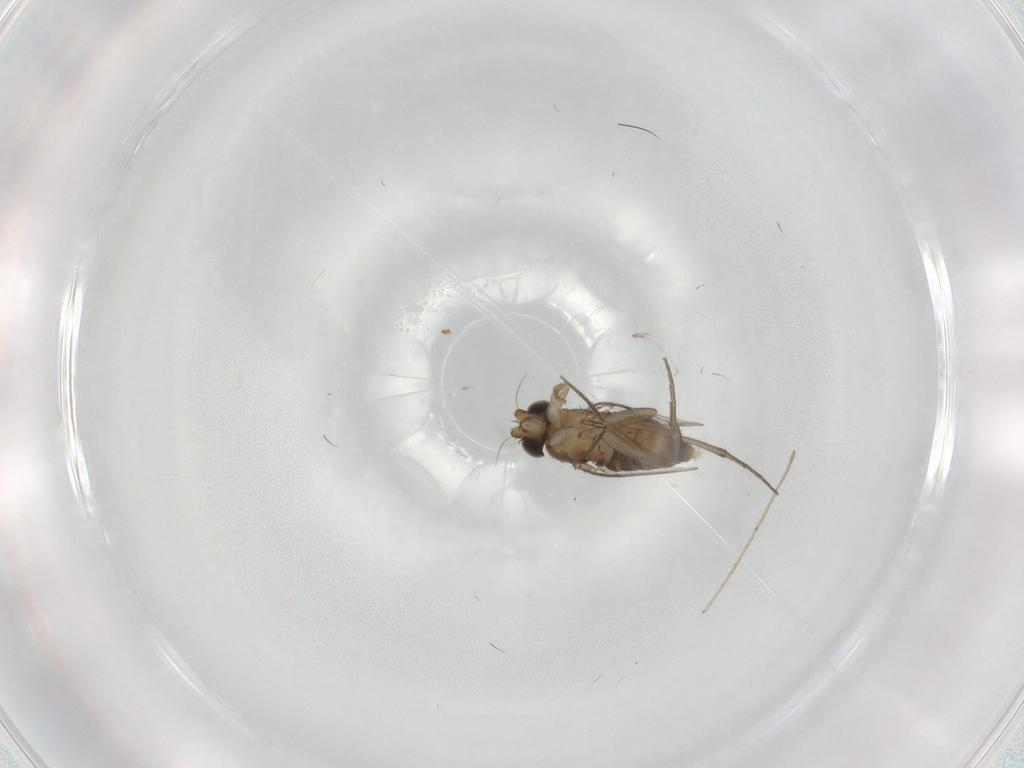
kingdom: Animalia
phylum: Arthropoda
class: Insecta
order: Diptera
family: Phoridae
